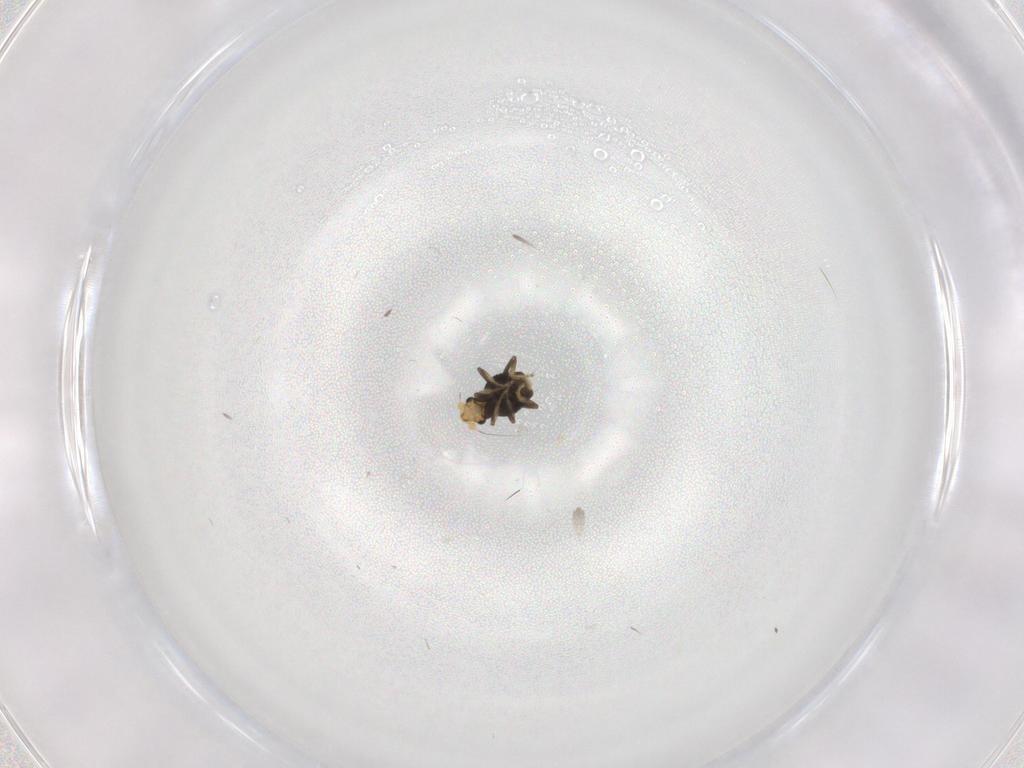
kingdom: Animalia
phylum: Arthropoda
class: Insecta
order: Diptera
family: Phoridae
